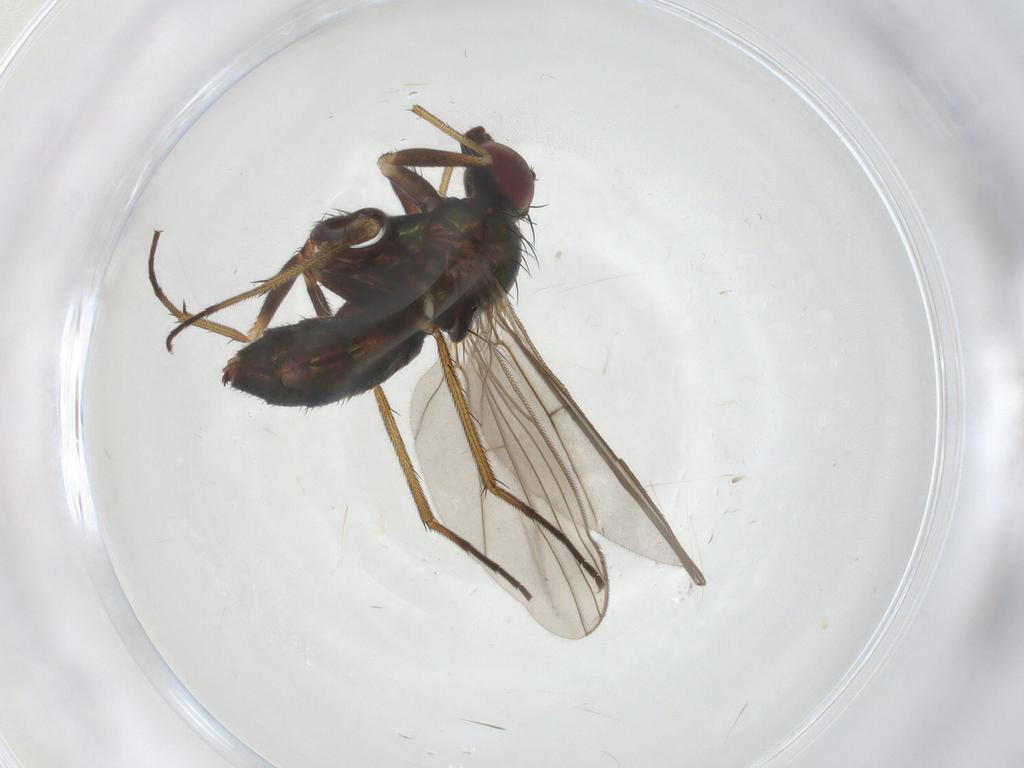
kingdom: Animalia
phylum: Arthropoda
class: Insecta
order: Diptera
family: Dolichopodidae
